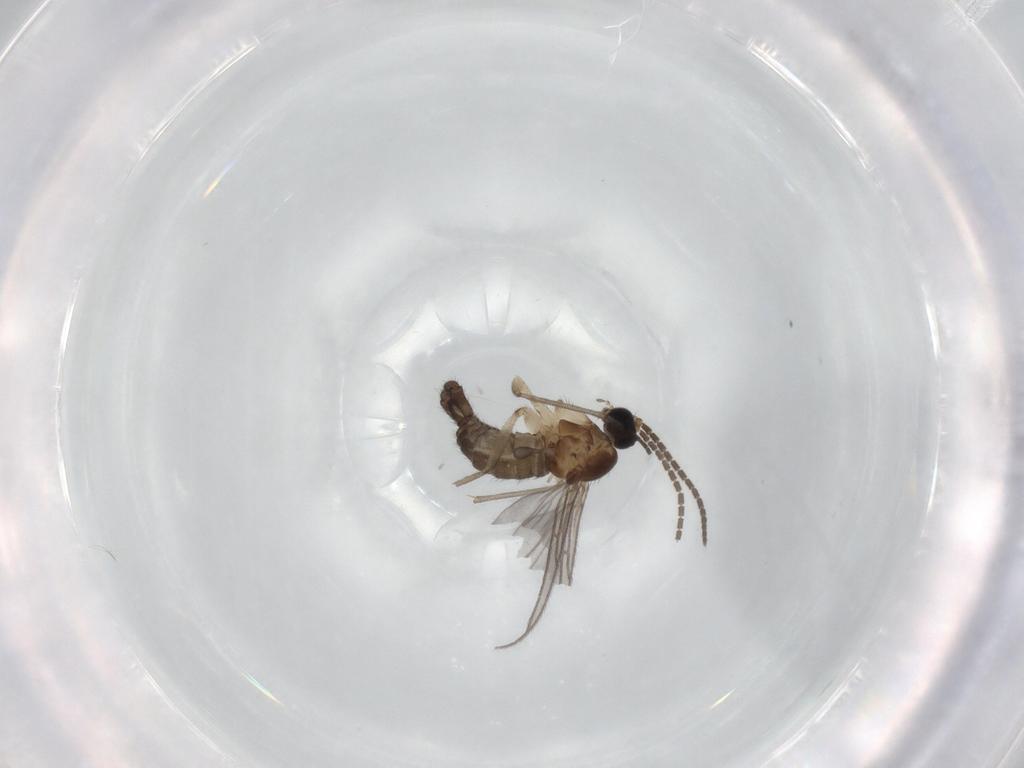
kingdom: Animalia
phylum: Arthropoda
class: Insecta
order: Diptera
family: Sciaridae
